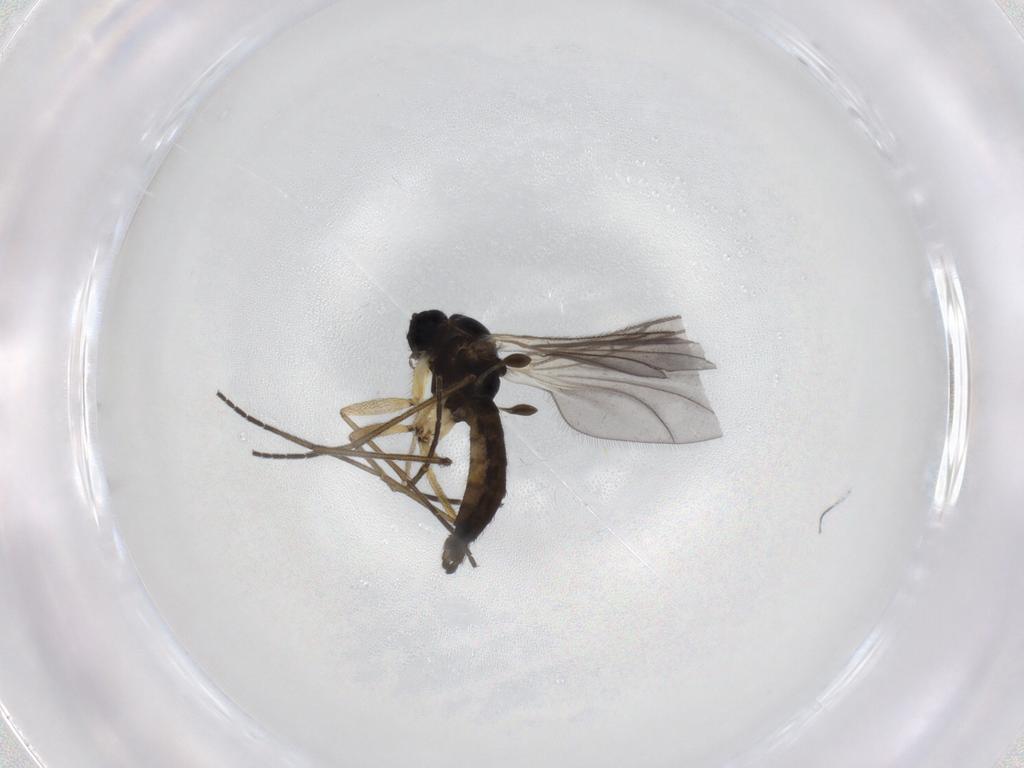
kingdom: Animalia
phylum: Arthropoda
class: Insecta
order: Diptera
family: Sciaridae
